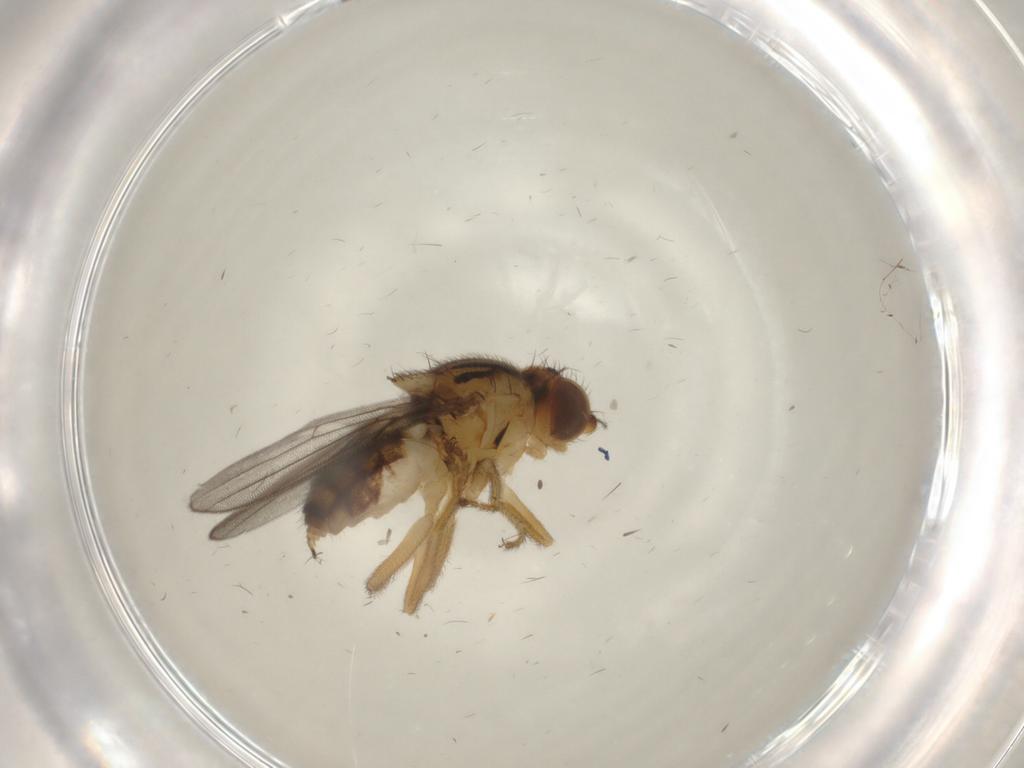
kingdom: Animalia
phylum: Arthropoda
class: Insecta
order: Diptera
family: Chloropidae
